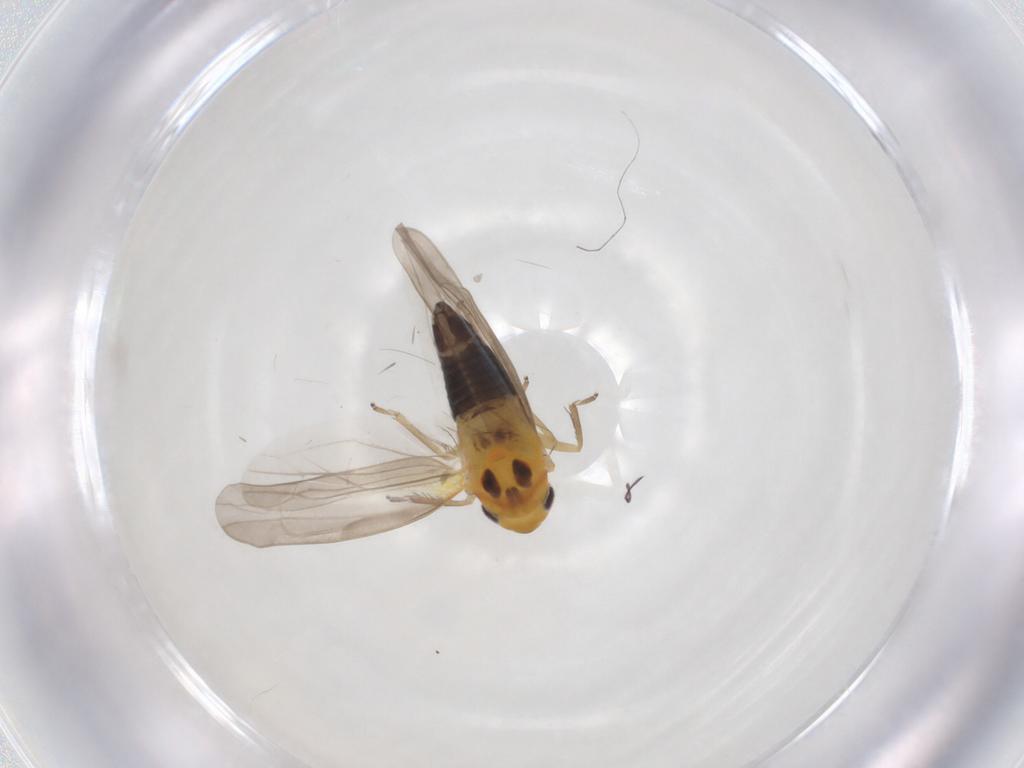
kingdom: Animalia
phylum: Arthropoda
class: Insecta
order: Hemiptera
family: Cicadellidae
